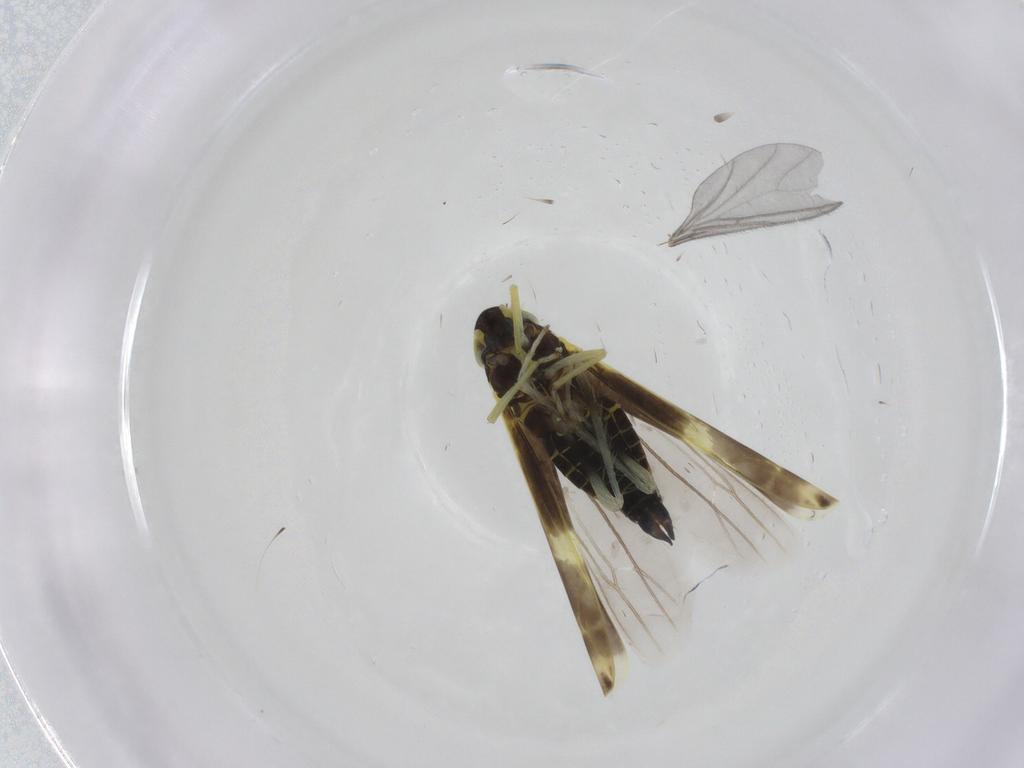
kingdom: Animalia
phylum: Arthropoda
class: Insecta
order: Hemiptera
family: Cicadellidae
